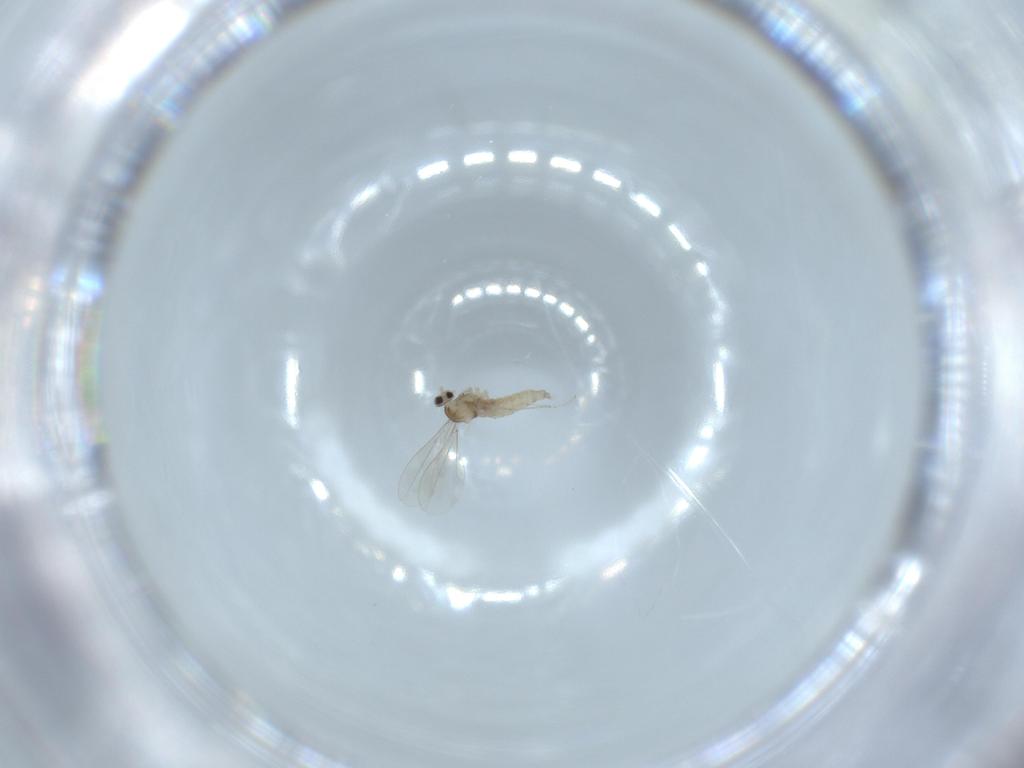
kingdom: Animalia
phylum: Arthropoda
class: Insecta
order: Diptera
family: Cecidomyiidae
